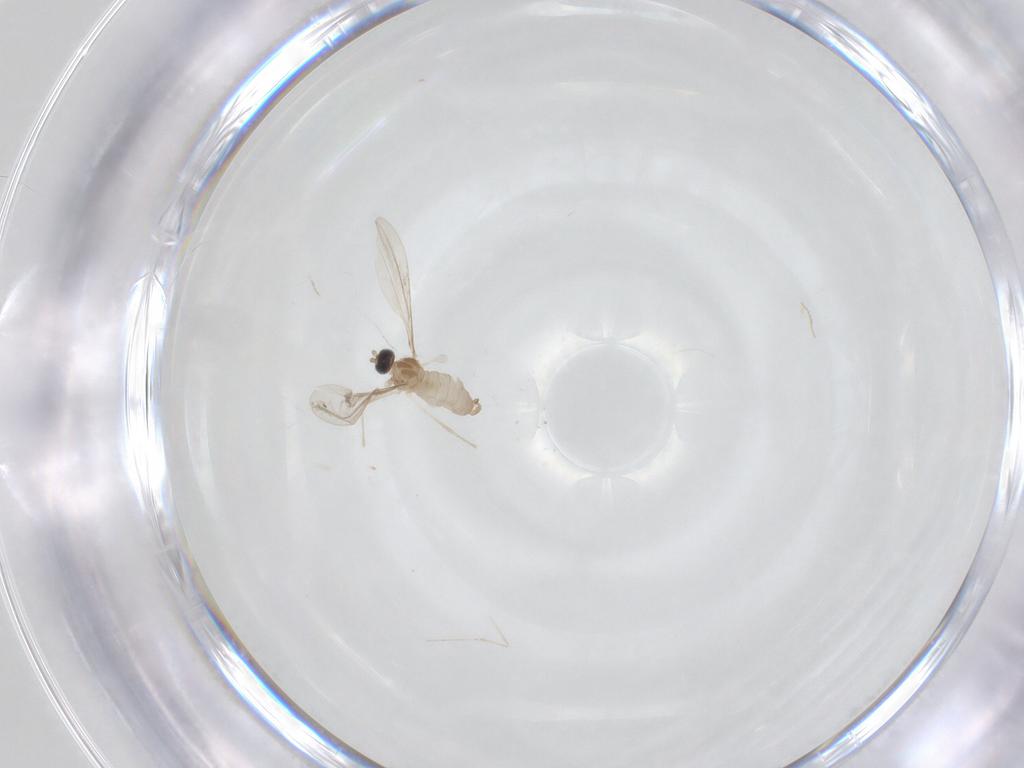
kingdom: Animalia
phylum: Arthropoda
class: Insecta
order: Diptera
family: Cecidomyiidae
